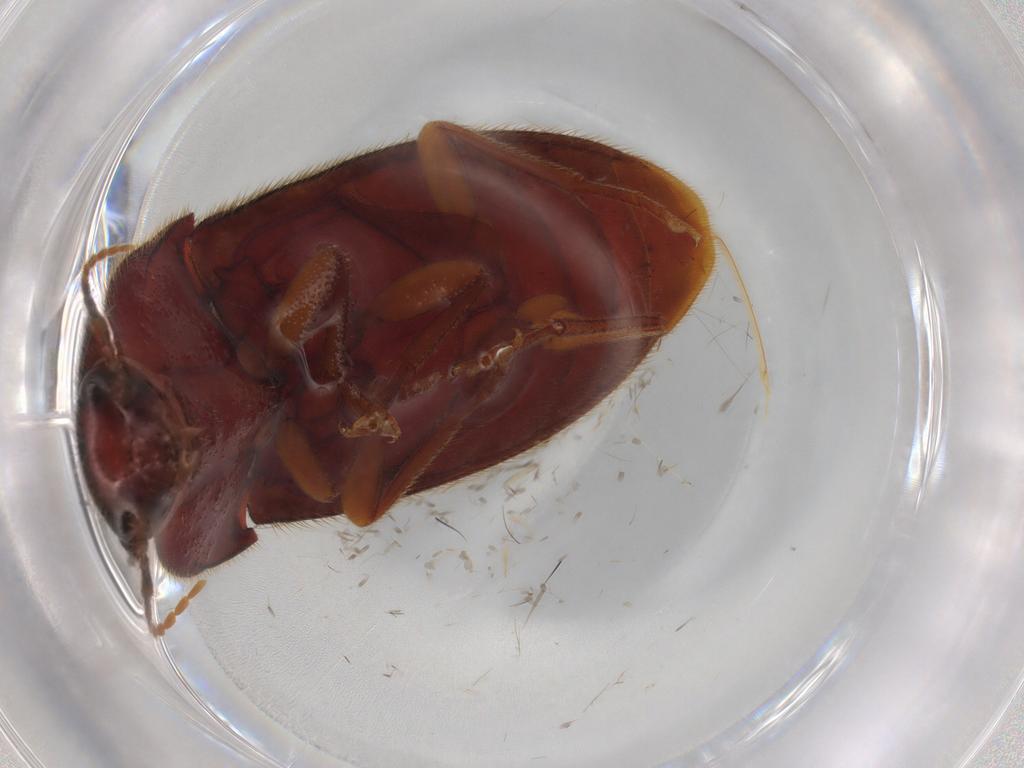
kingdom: Animalia
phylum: Arthropoda
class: Insecta
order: Coleoptera
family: Elateridae
